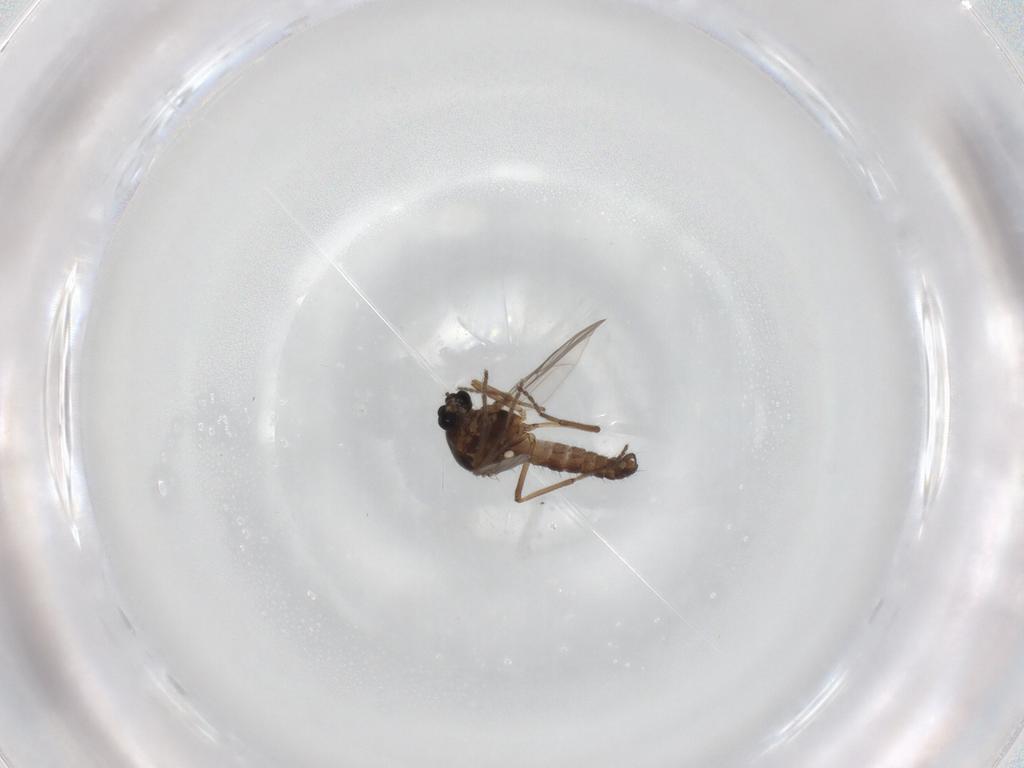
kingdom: Animalia
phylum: Arthropoda
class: Insecta
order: Diptera
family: Ceratopogonidae
